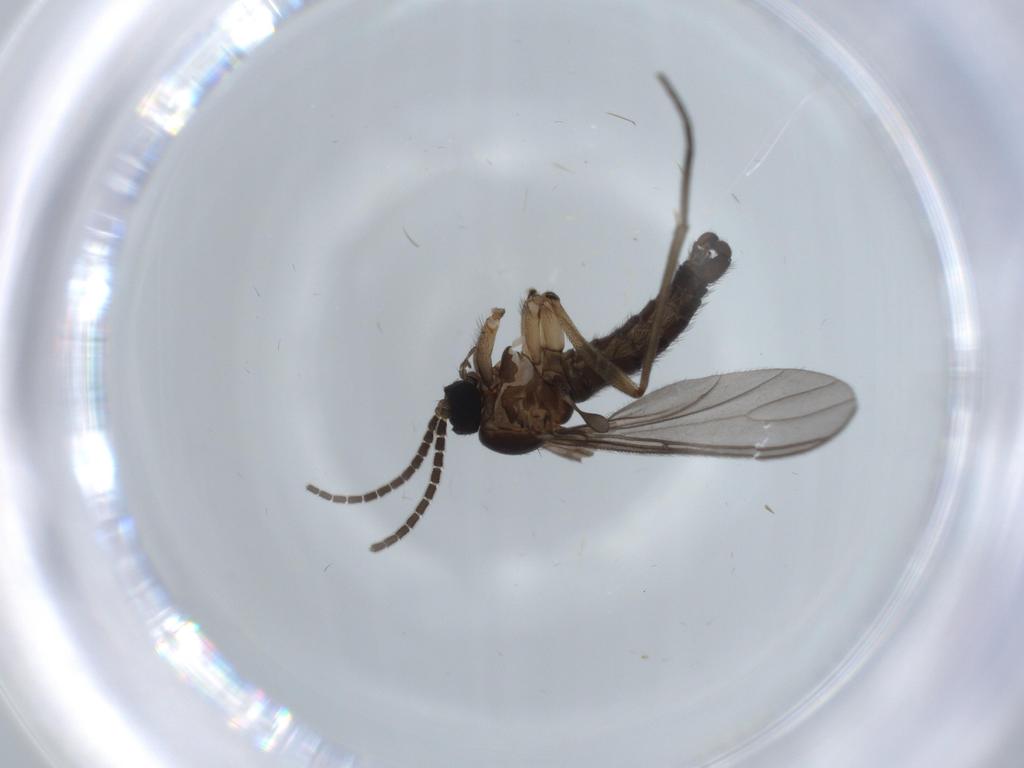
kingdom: Animalia
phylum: Arthropoda
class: Insecta
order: Diptera
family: Sciaridae
